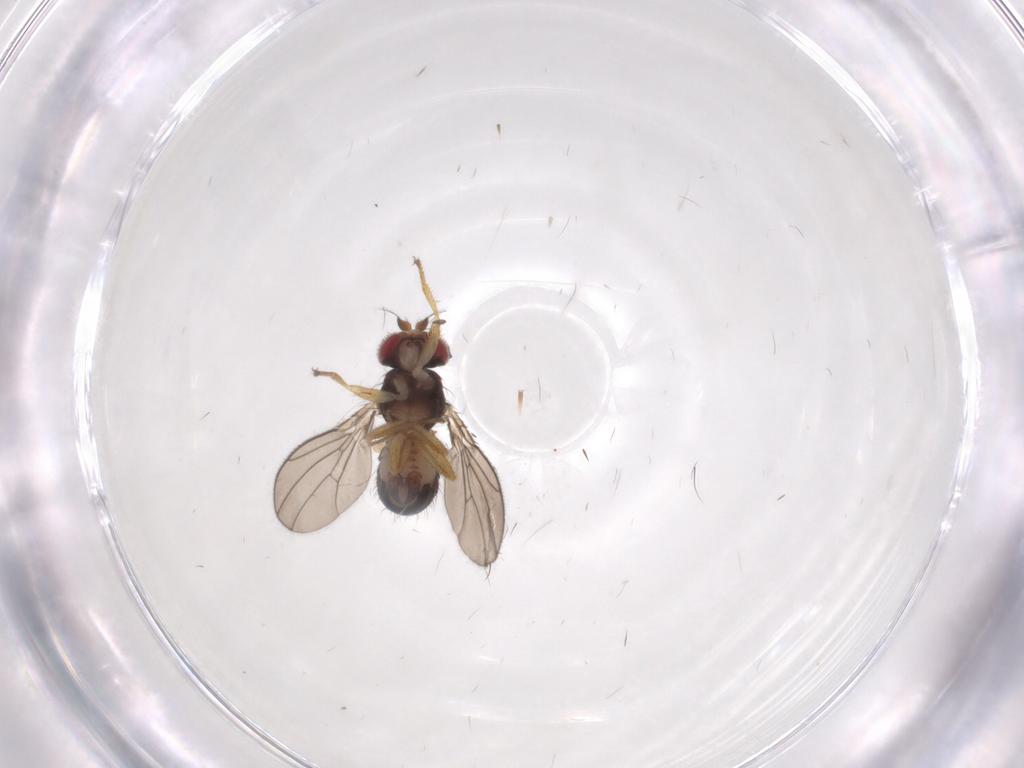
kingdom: Animalia
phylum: Arthropoda
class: Insecta
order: Diptera
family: Drosophilidae
